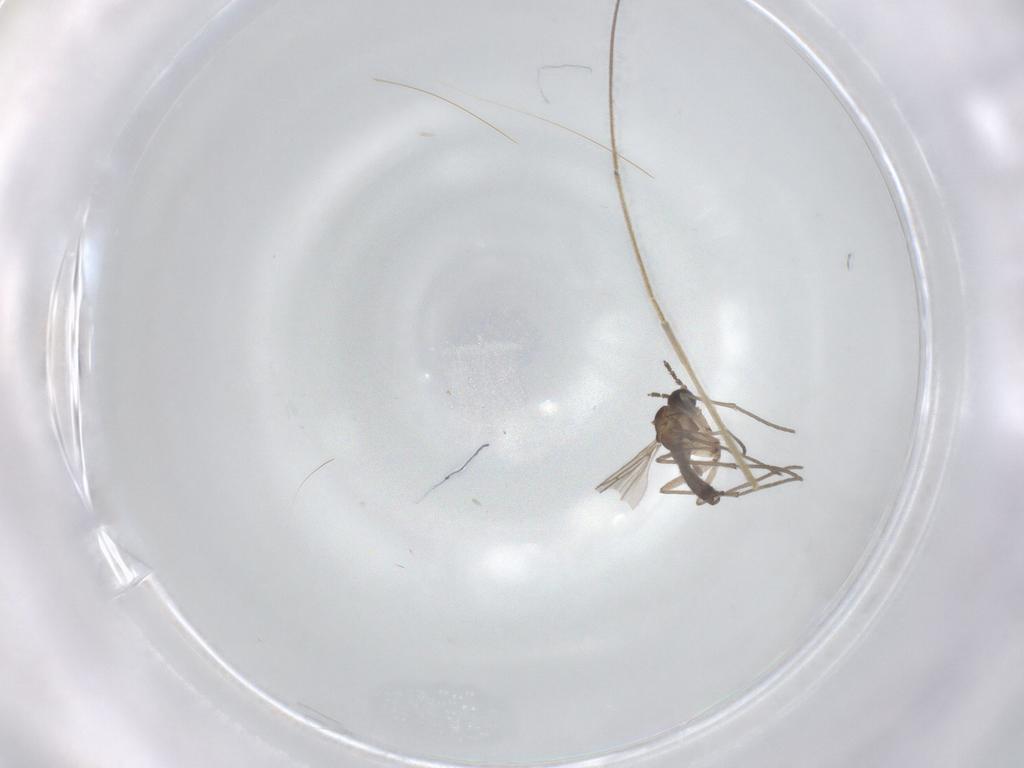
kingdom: Animalia
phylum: Arthropoda
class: Insecta
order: Diptera
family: Sciaridae
